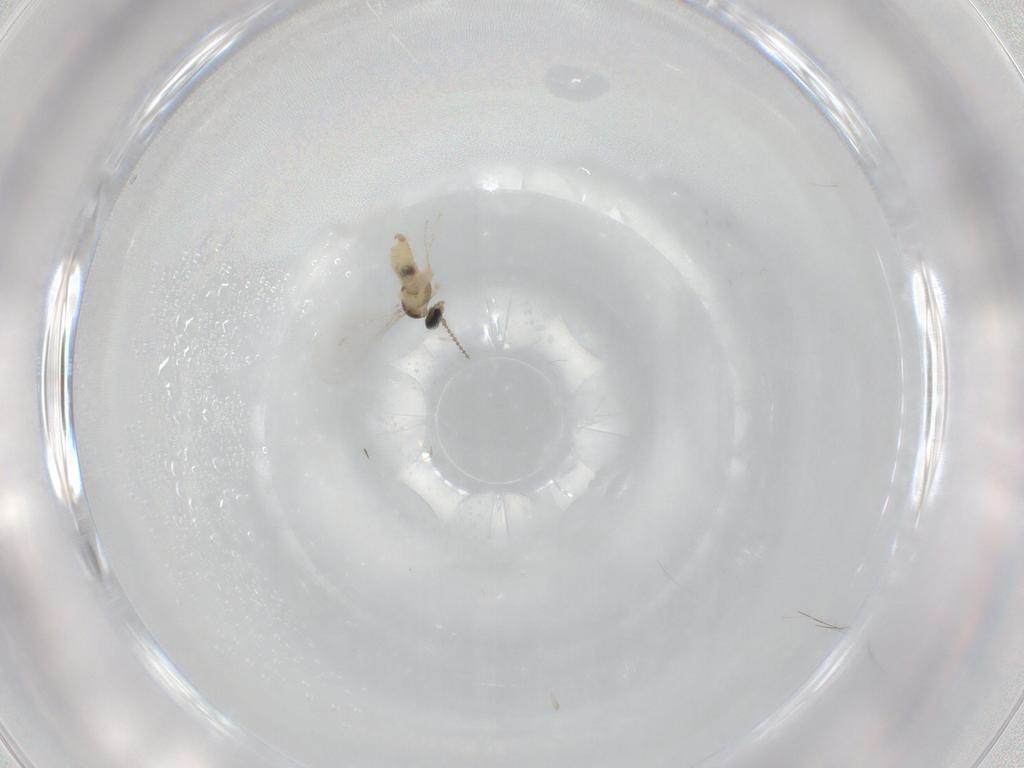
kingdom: Animalia
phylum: Arthropoda
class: Insecta
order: Diptera
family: Cecidomyiidae
